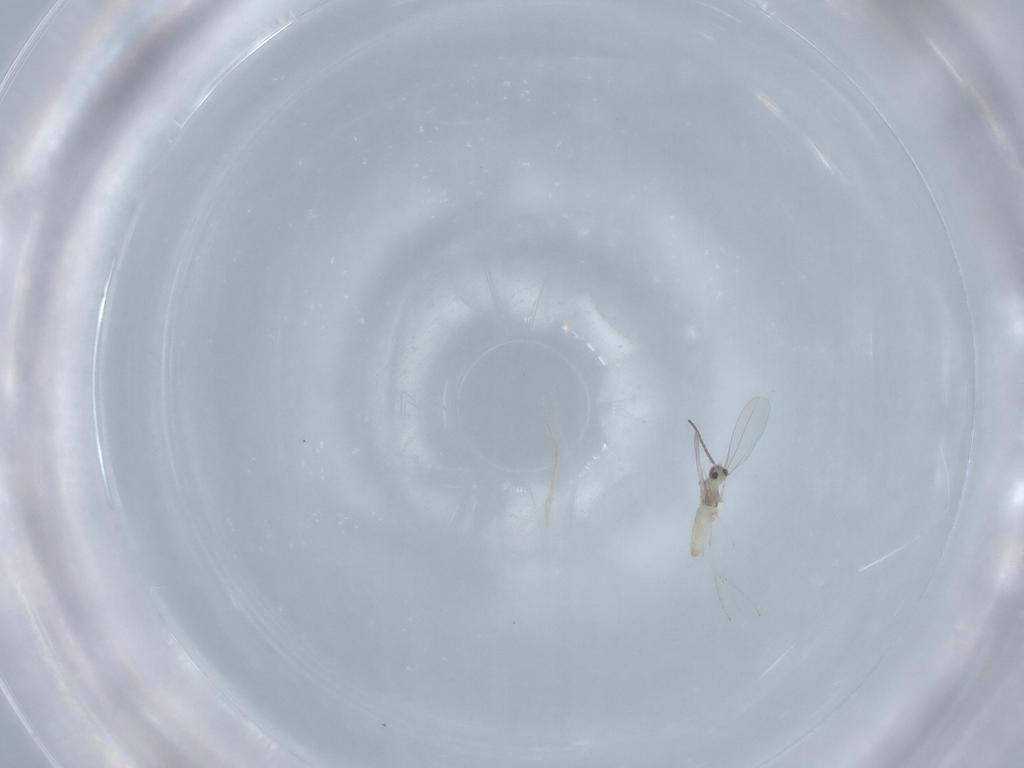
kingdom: Animalia
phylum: Arthropoda
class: Insecta
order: Diptera
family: Cecidomyiidae
